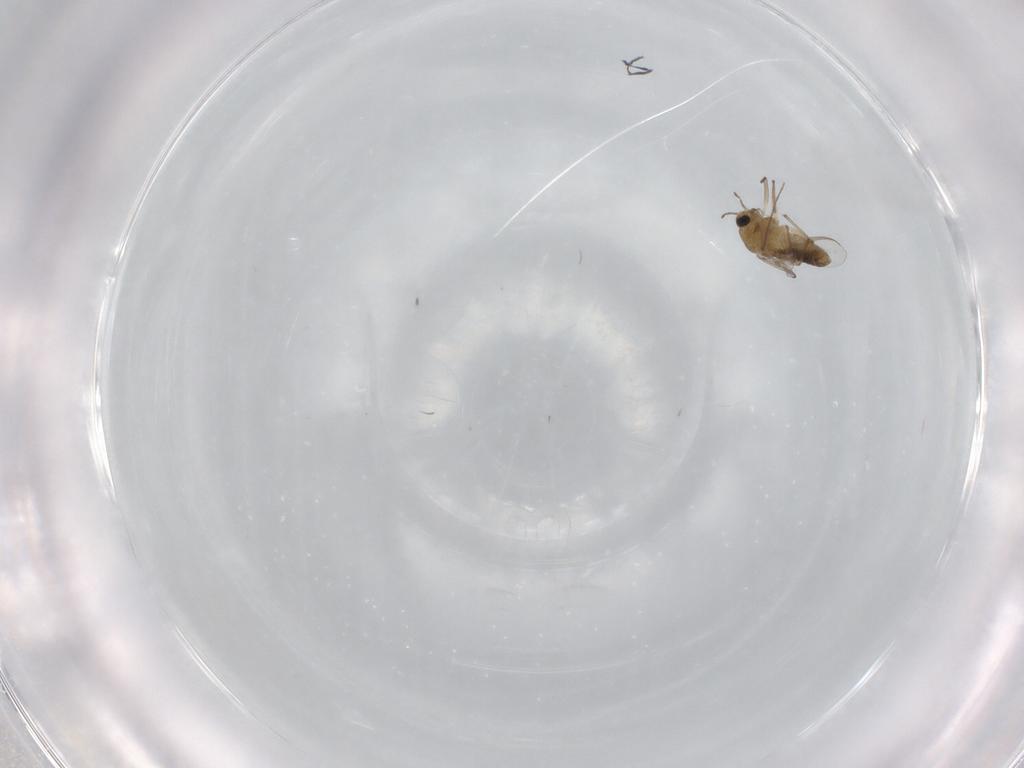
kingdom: Animalia
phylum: Arthropoda
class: Insecta
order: Diptera
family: Chironomidae
